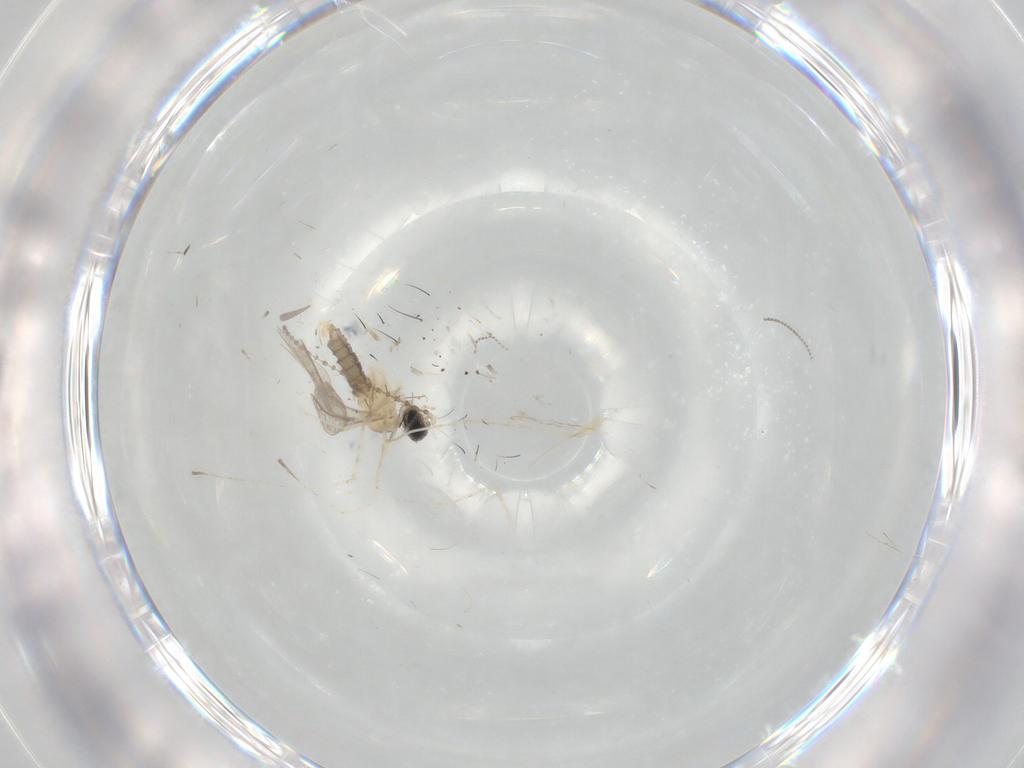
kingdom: Animalia
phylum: Arthropoda
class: Insecta
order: Diptera
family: Cecidomyiidae
